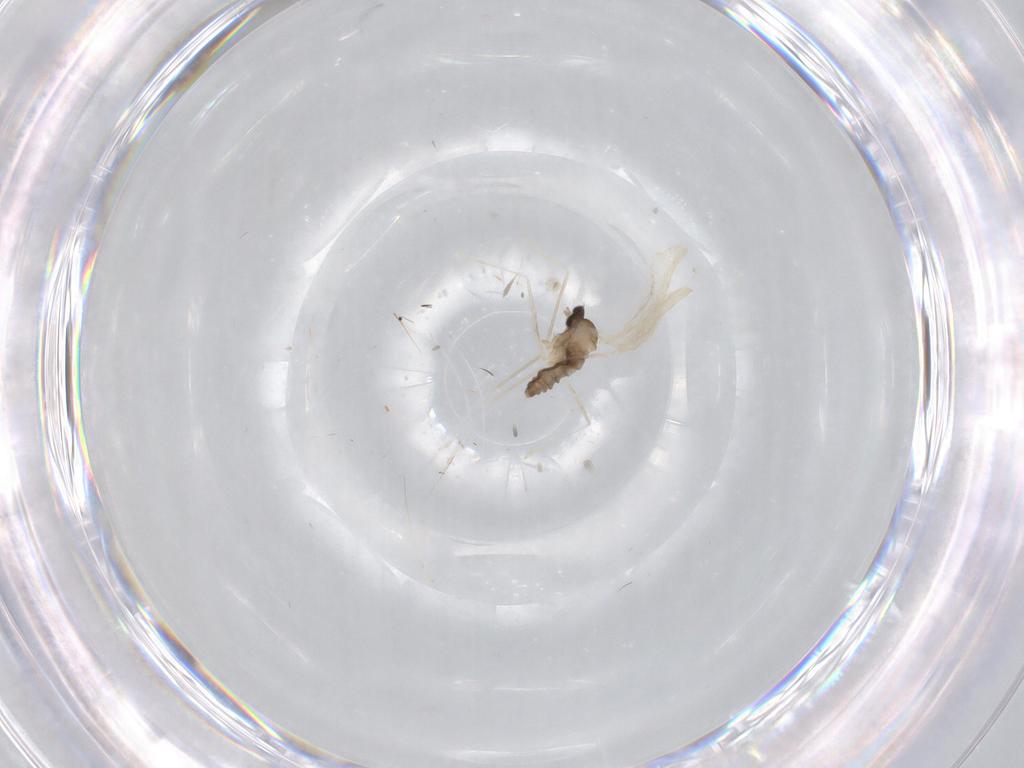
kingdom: Animalia
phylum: Arthropoda
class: Insecta
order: Diptera
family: Cecidomyiidae
